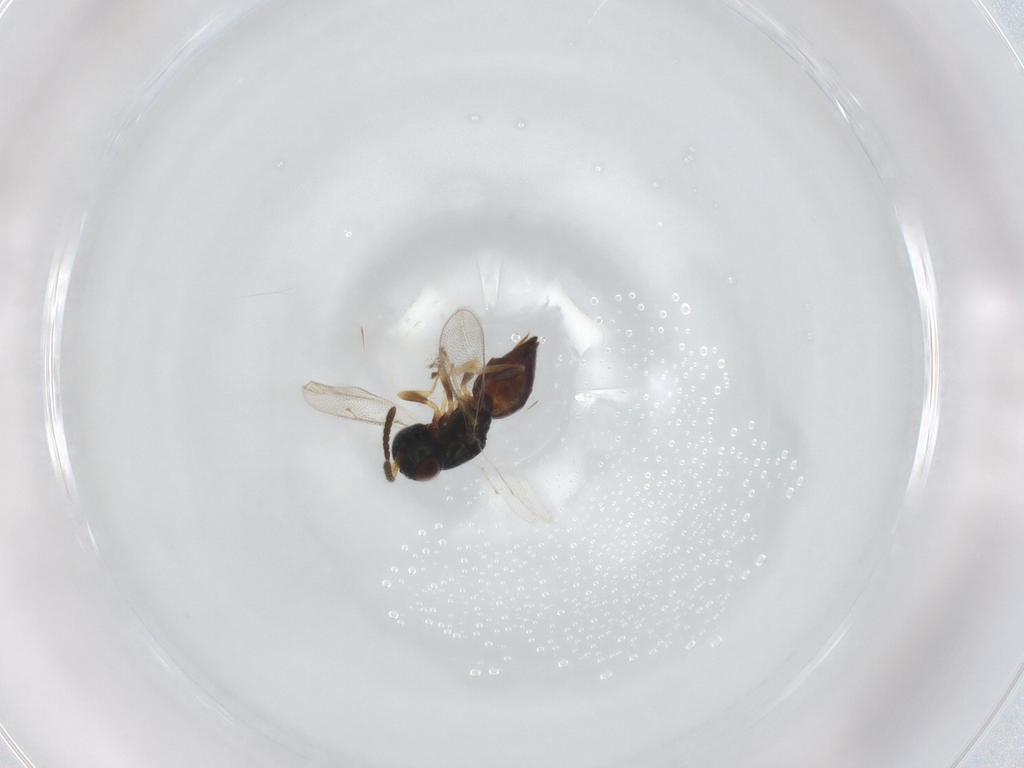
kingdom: Animalia
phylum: Arthropoda
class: Insecta
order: Hymenoptera
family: Pteromalidae
